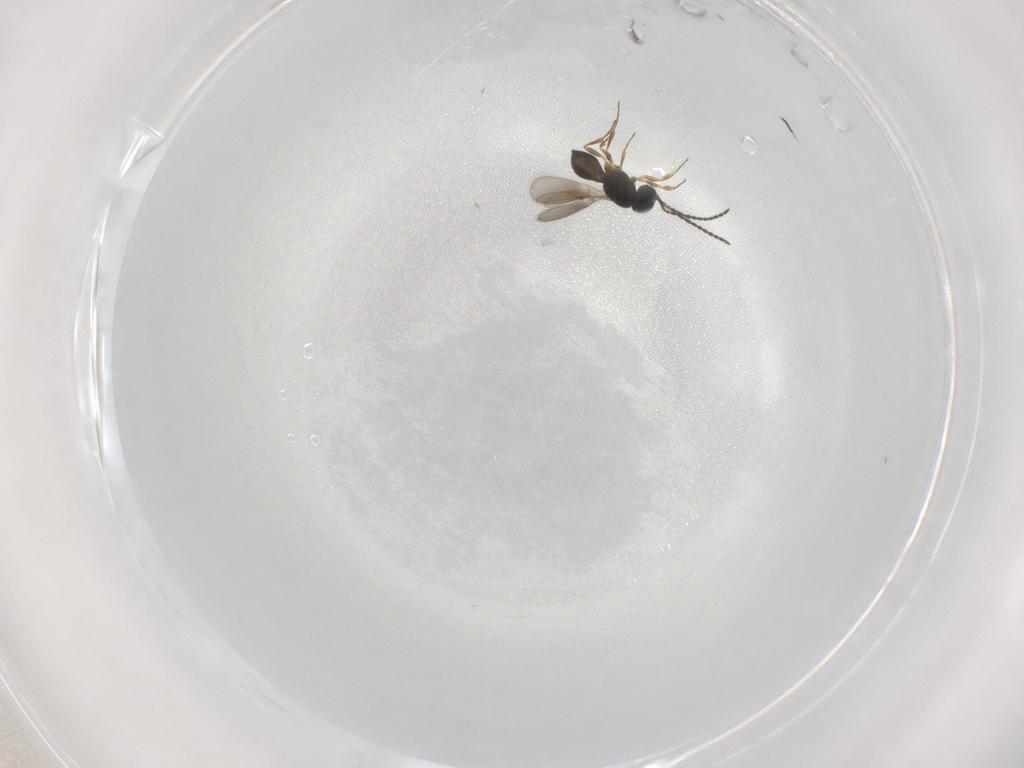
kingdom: Animalia
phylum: Arthropoda
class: Insecta
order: Hymenoptera
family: Scelionidae
